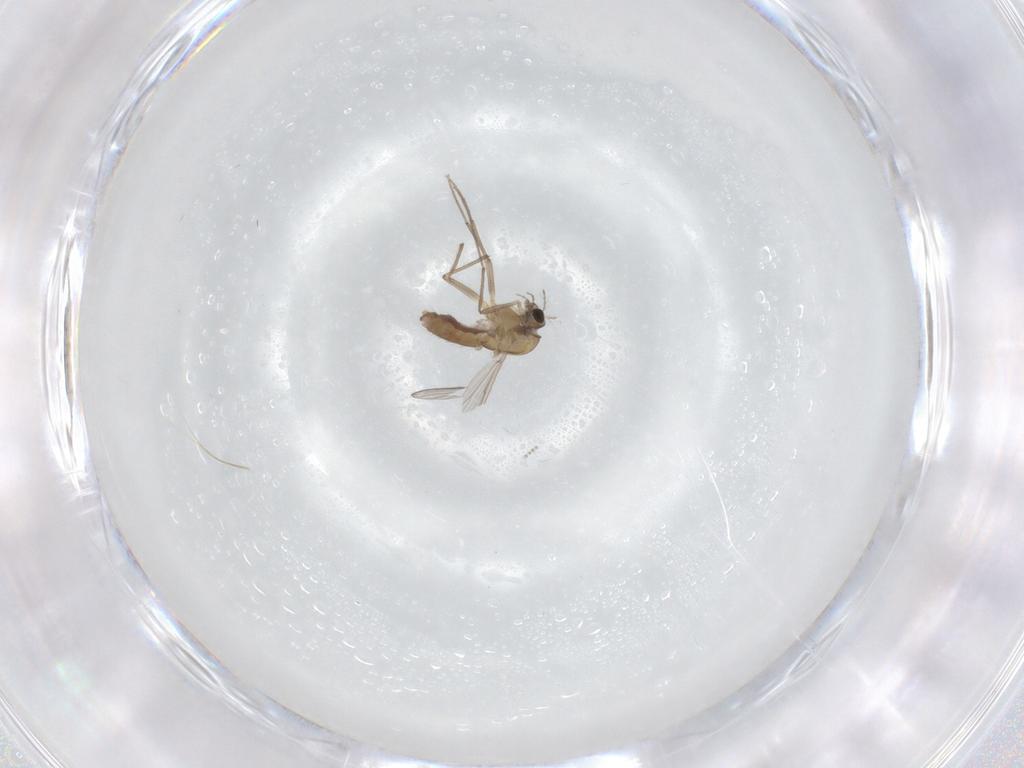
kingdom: Animalia
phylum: Arthropoda
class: Insecta
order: Diptera
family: Chironomidae
